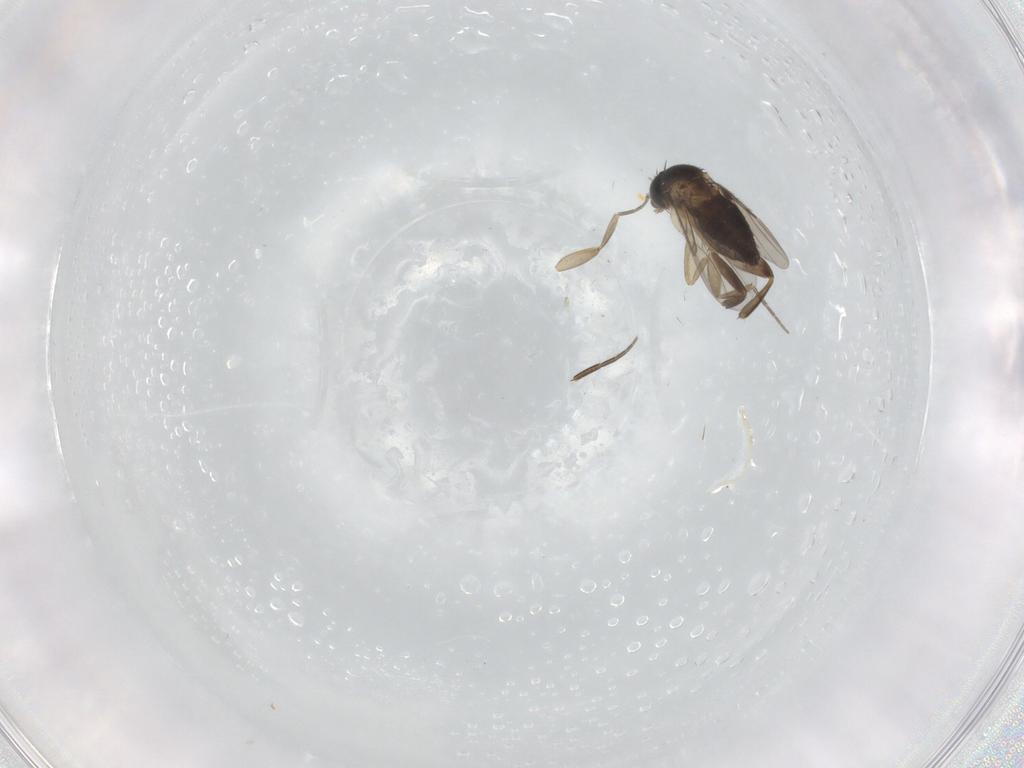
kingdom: Animalia
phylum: Arthropoda
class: Insecta
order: Diptera
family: Phoridae
